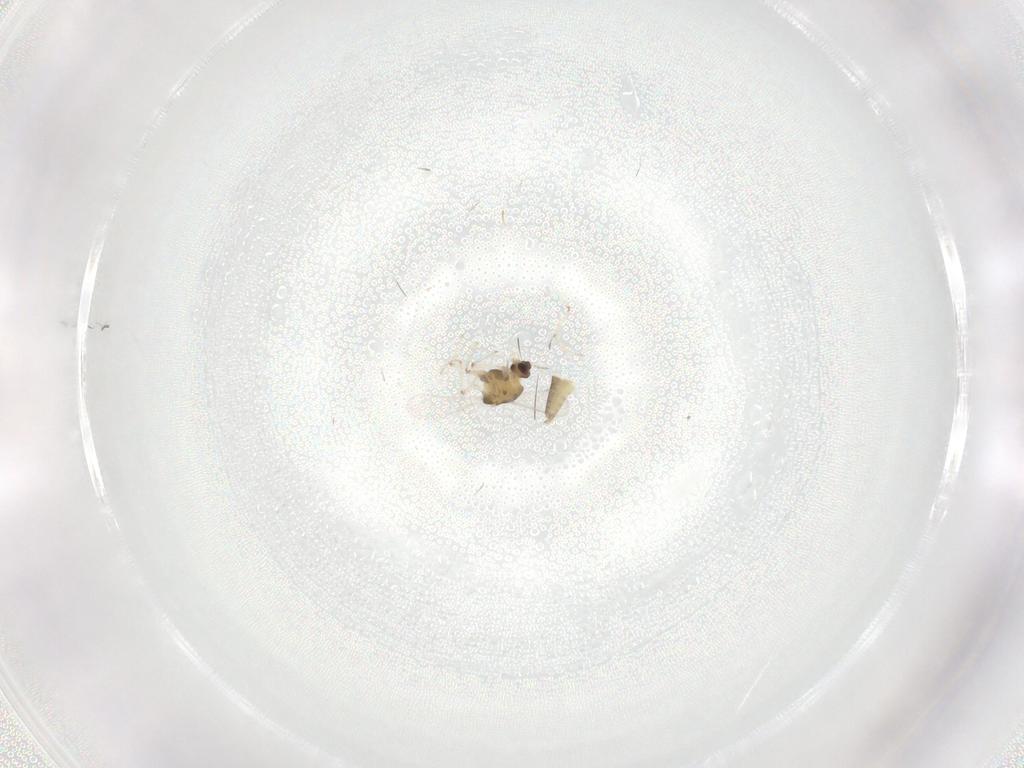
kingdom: Animalia
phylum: Arthropoda
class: Insecta
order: Diptera
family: Chironomidae
